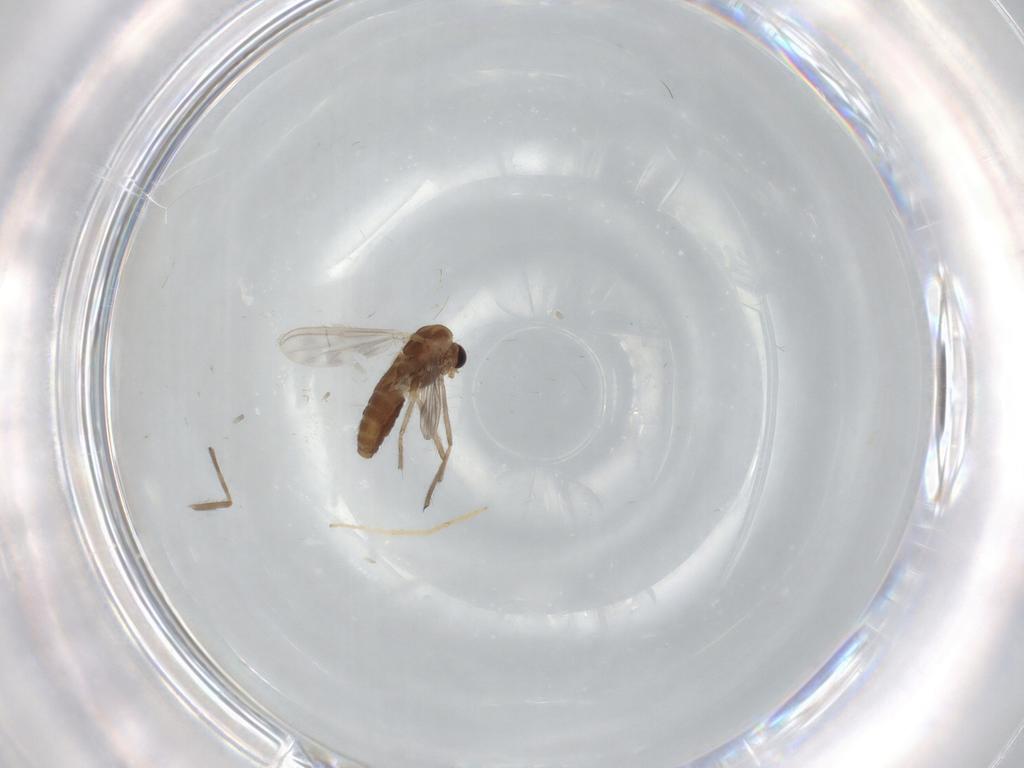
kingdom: Animalia
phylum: Arthropoda
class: Insecta
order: Diptera
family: Chironomidae
